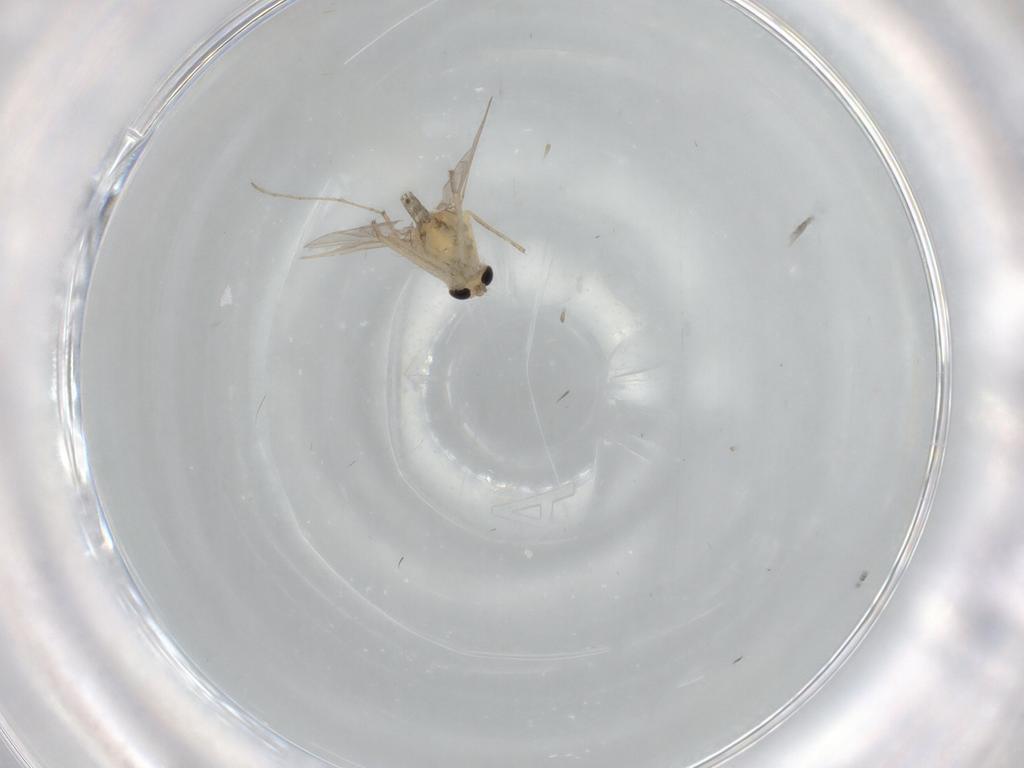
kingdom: Animalia
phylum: Arthropoda
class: Insecta
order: Diptera
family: Chironomidae
